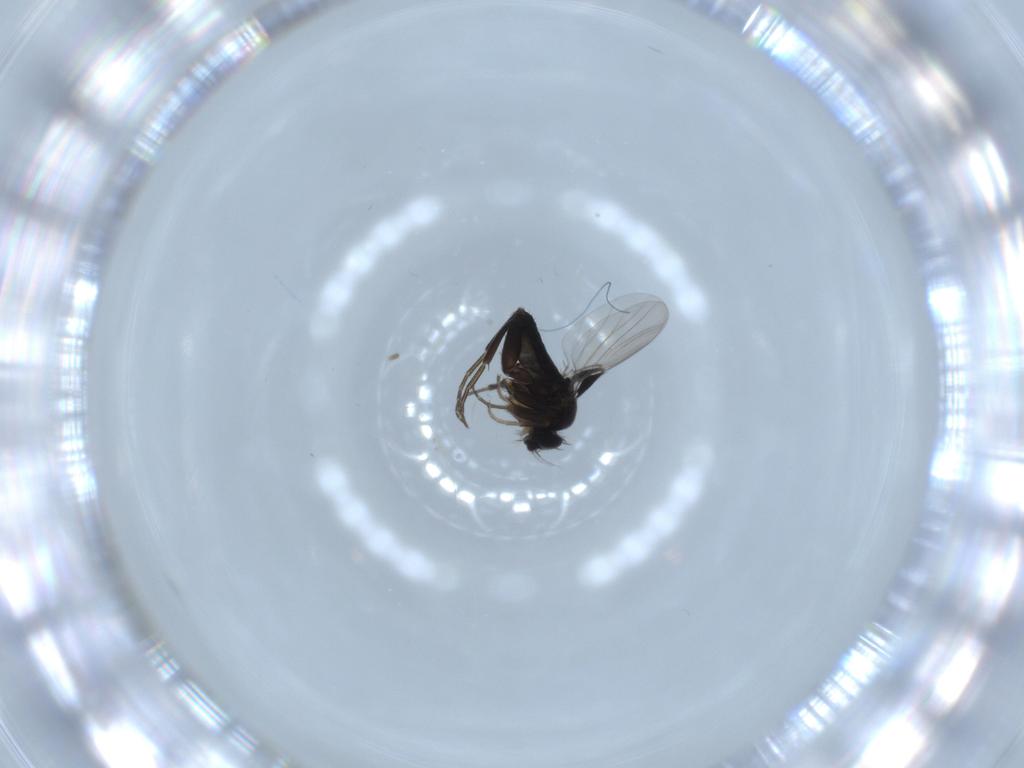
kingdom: Animalia
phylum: Arthropoda
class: Insecta
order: Diptera
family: Phoridae
